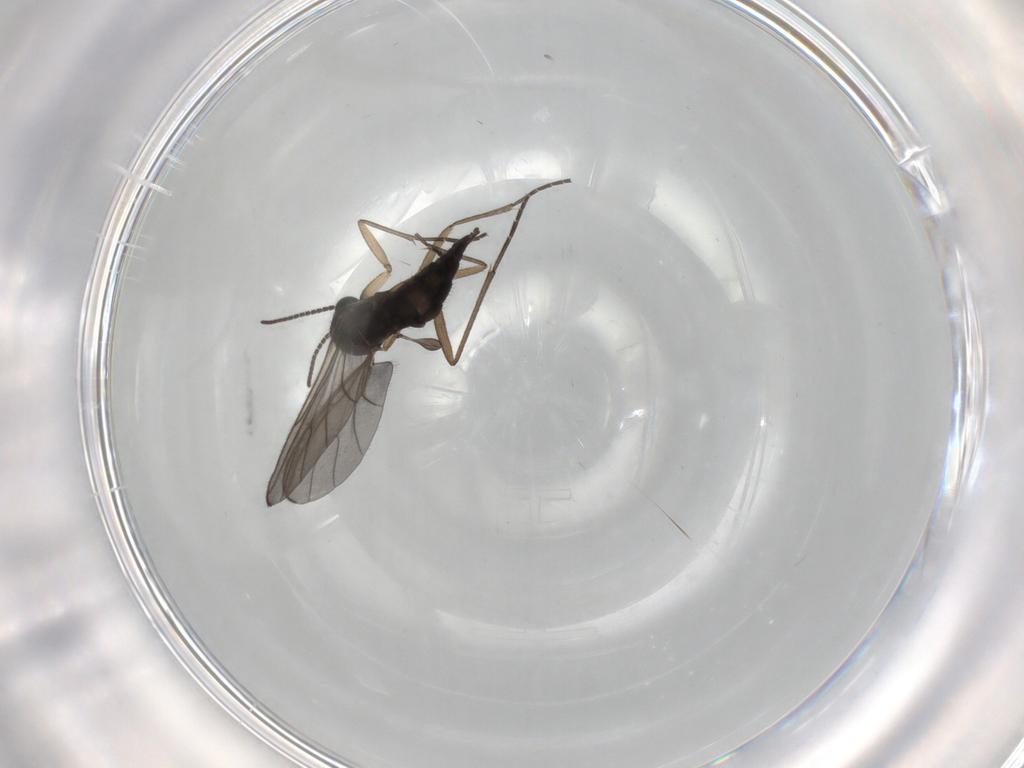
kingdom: Animalia
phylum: Arthropoda
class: Insecta
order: Diptera
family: Sciaridae
